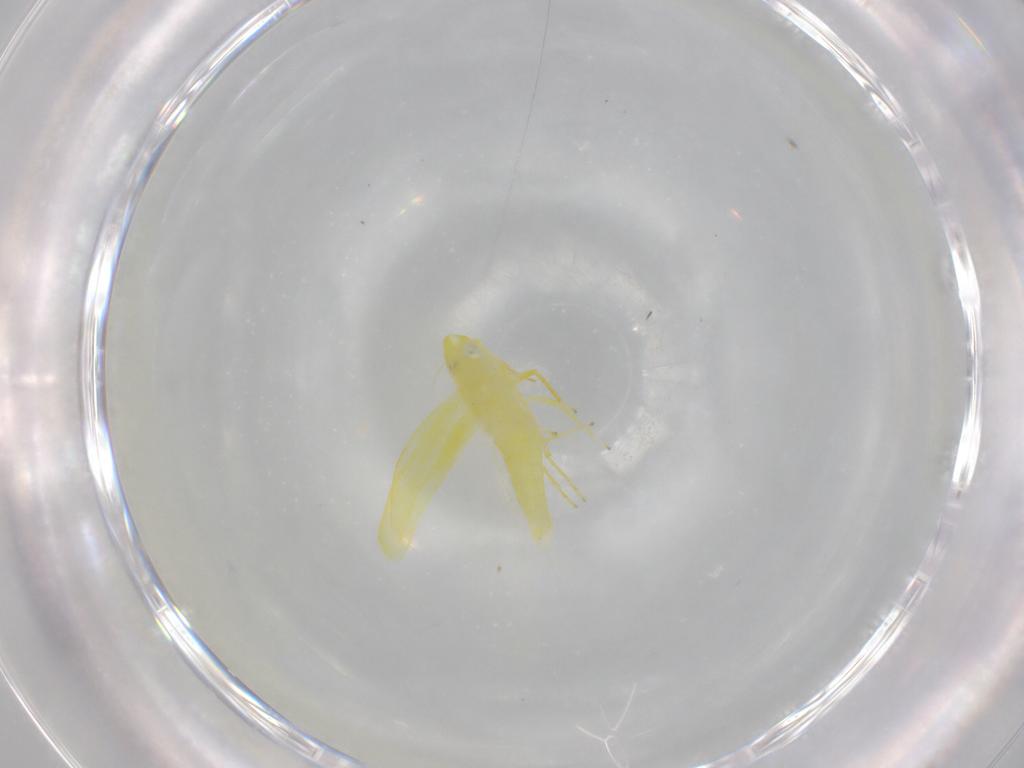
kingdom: Animalia
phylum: Arthropoda
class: Insecta
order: Hemiptera
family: Cicadellidae
